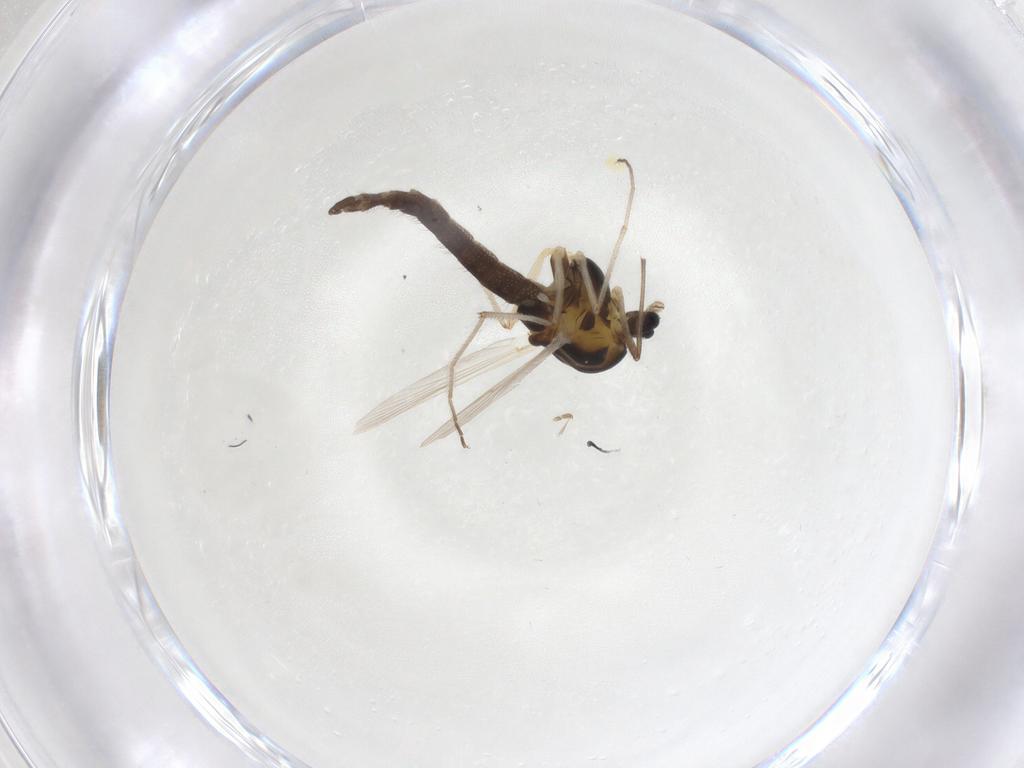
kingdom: Animalia
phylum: Arthropoda
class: Insecta
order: Diptera
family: Chironomidae
